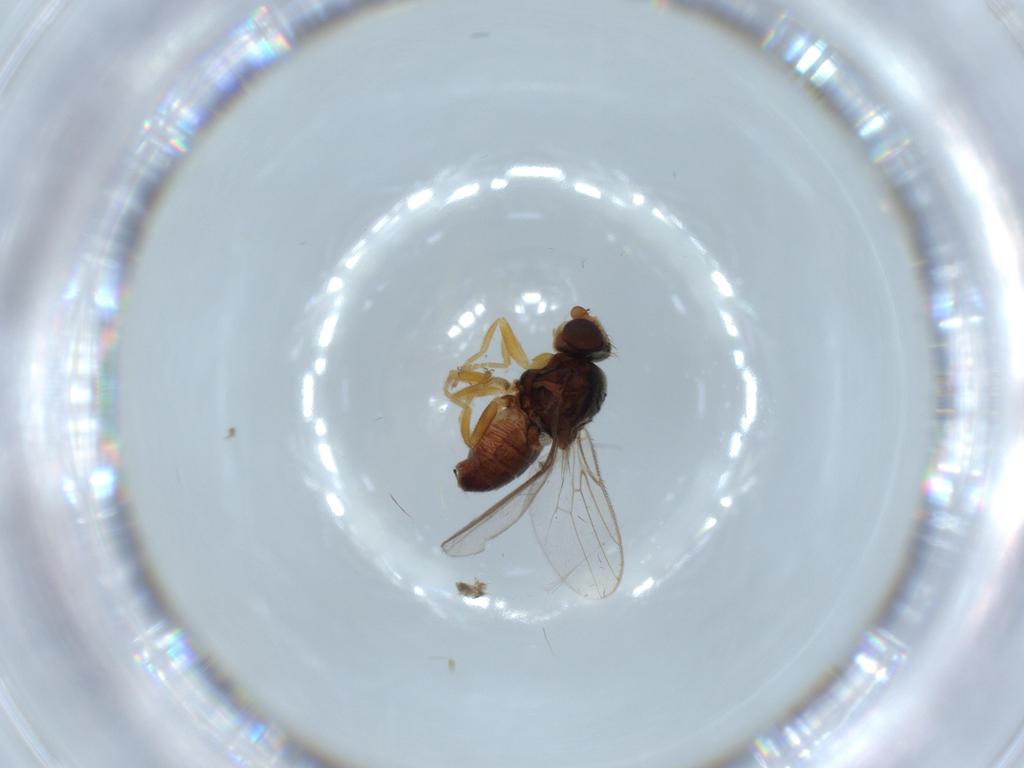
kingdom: Animalia
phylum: Arthropoda
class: Insecta
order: Diptera
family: Chloropidae
